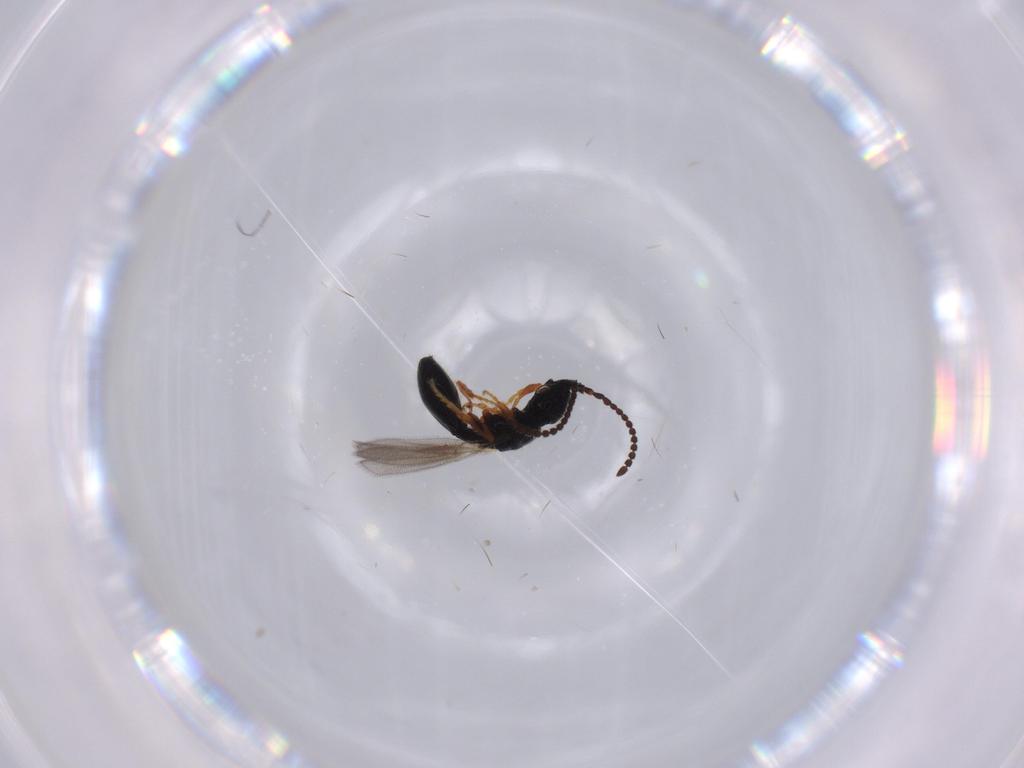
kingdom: Animalia
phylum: Arthropoda
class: Insecta
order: Hymenoptera
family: Diapriidae
